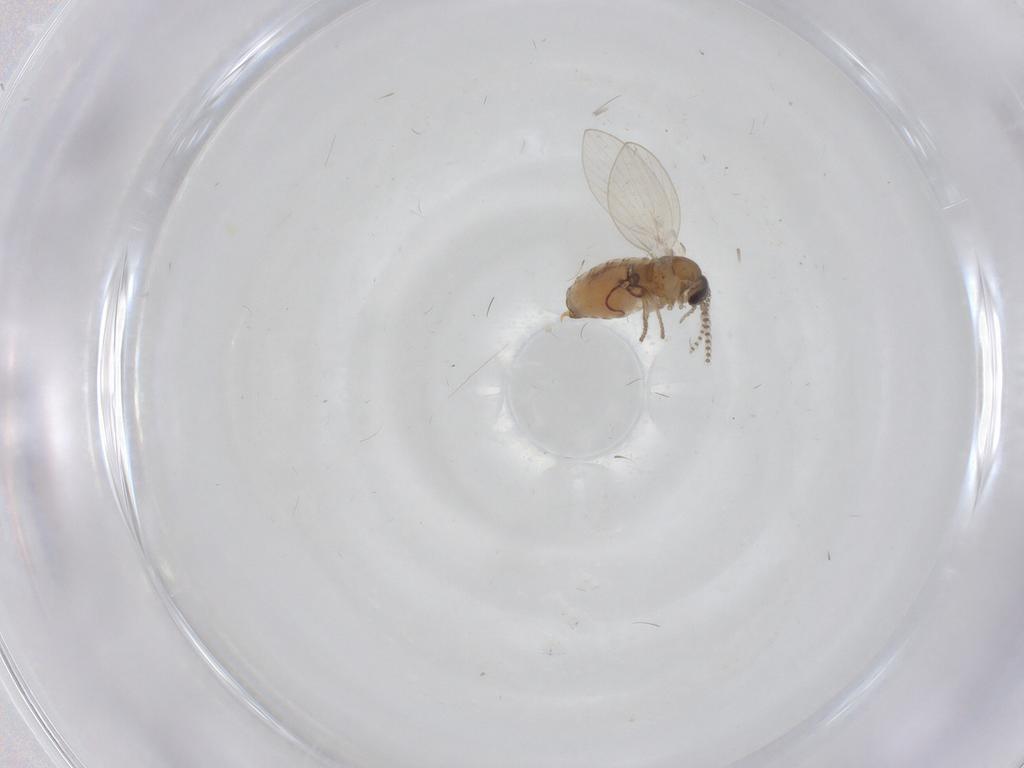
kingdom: Animalia
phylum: Arthropoda
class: Insecta
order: Diptera
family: Psychodidae
